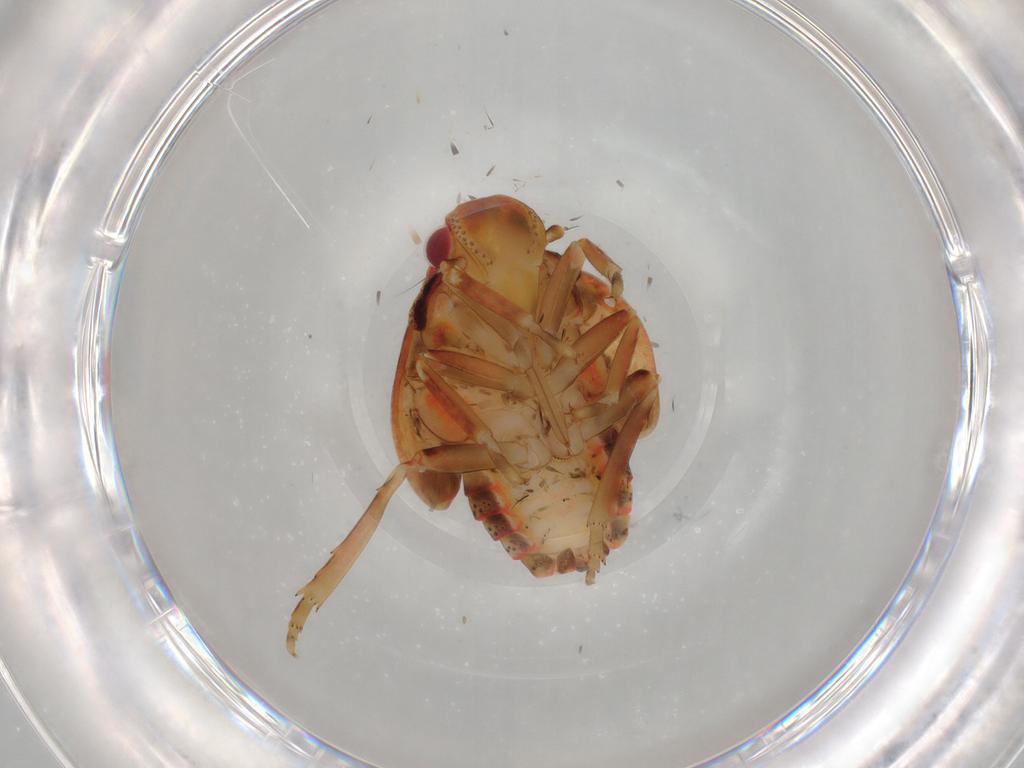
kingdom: Animalia
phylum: Arthropoda
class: Insecta
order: Hemiptera
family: Flatidae
